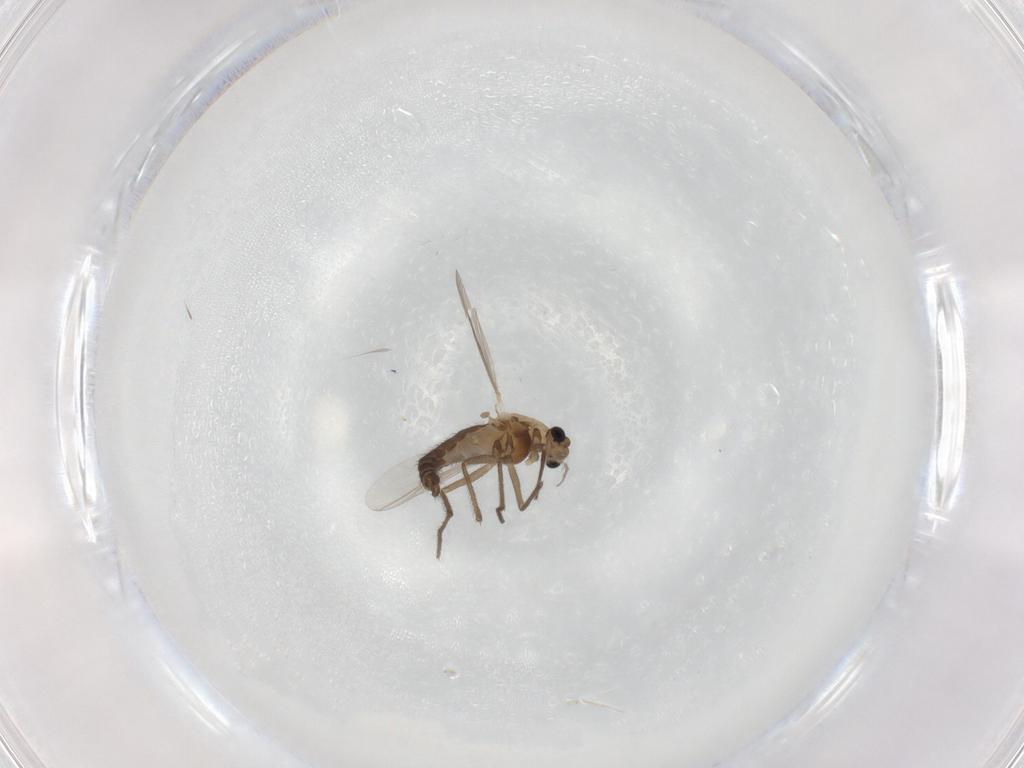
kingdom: Animalia
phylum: Arthropoda
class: Insecta
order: Diptera
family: Chironomidae
